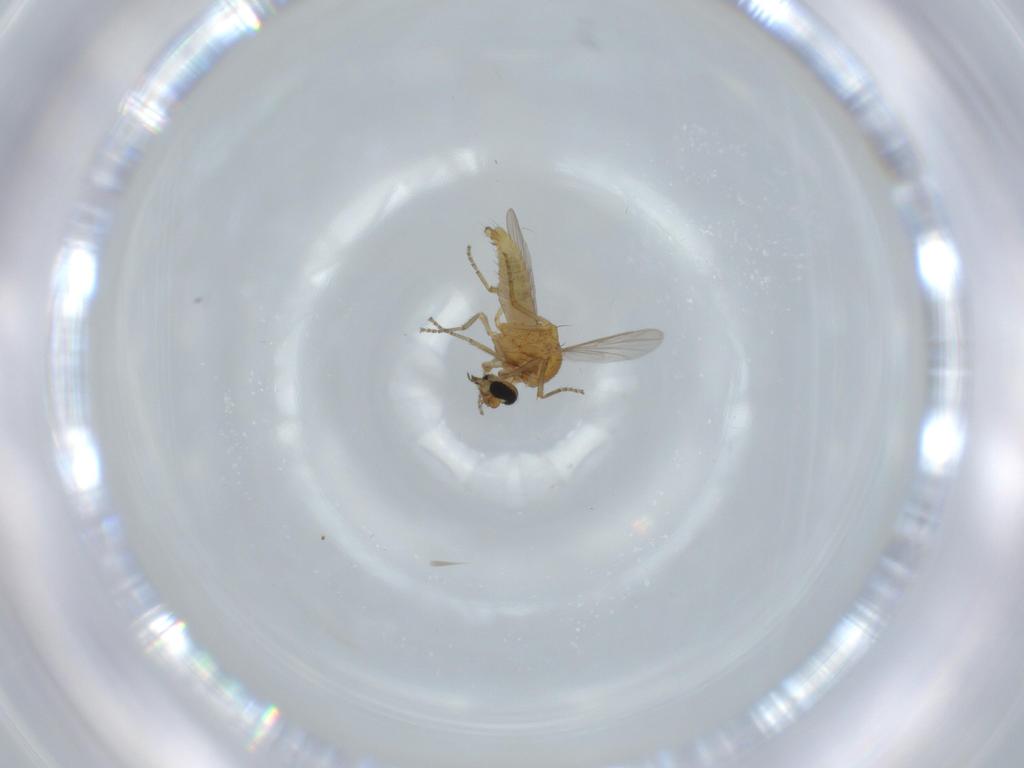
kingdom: Animalia
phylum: Arthropoda
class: Insecta
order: Diptera
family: Ceratopogonidae
